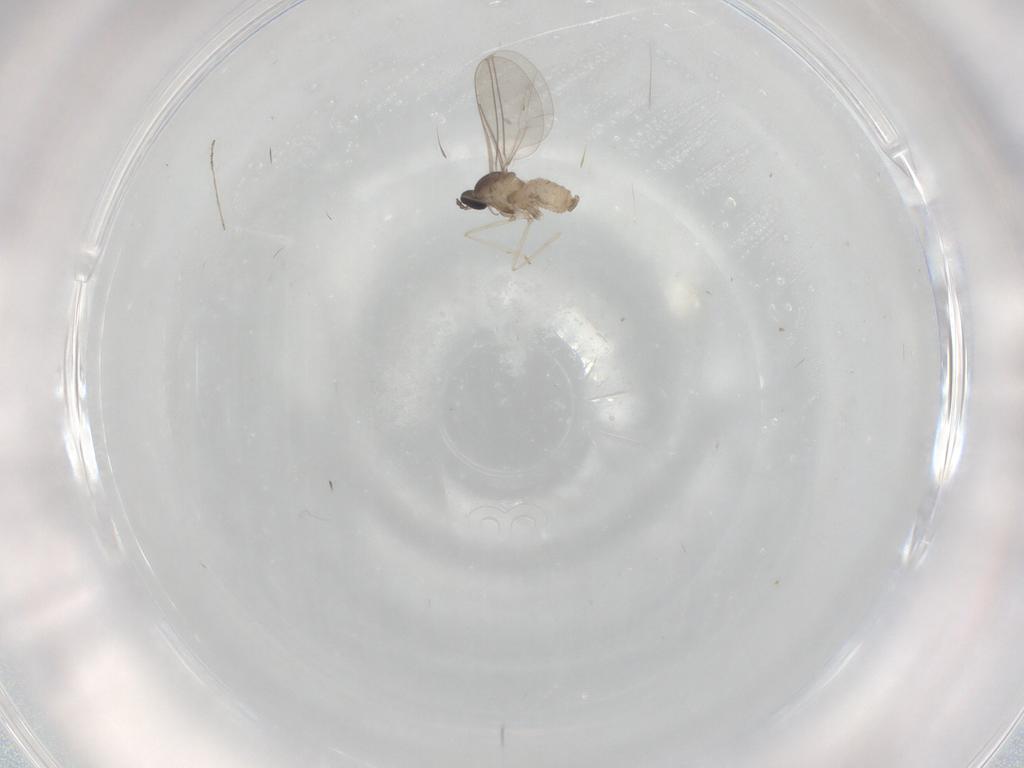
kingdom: Animalia
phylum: Arthropoda
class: Insecta
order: Diptera
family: Cecidomyiidae
